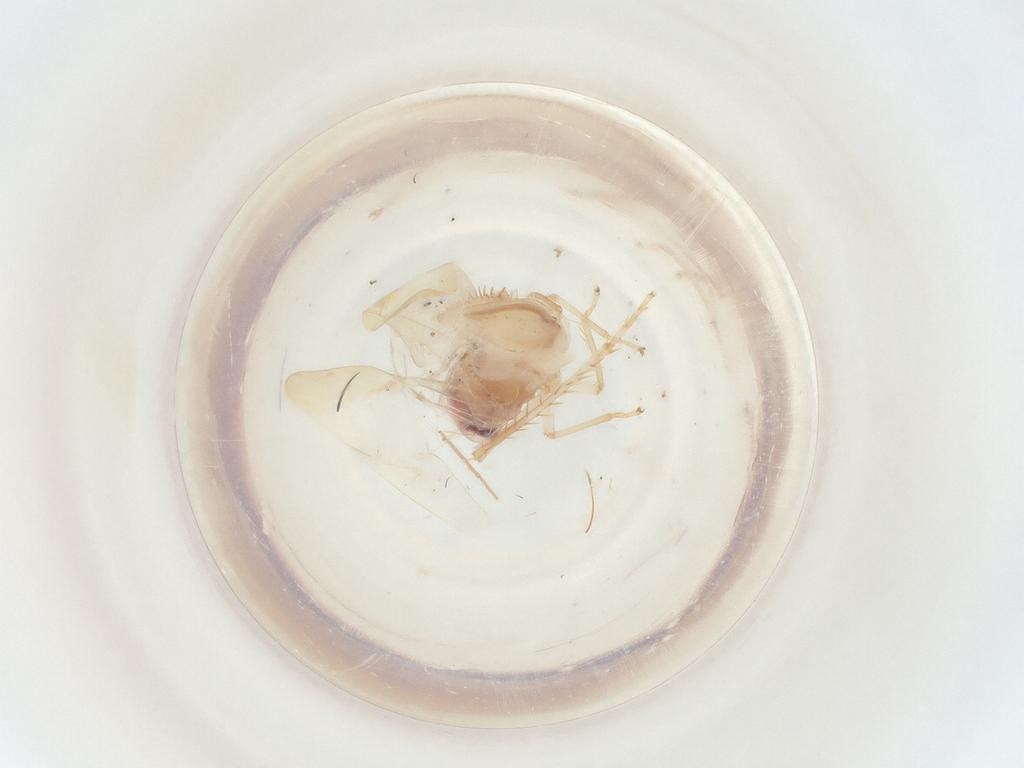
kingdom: Animalia
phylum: Arthropoda
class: Insecta
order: Hemiptera
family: Cicadellidae
